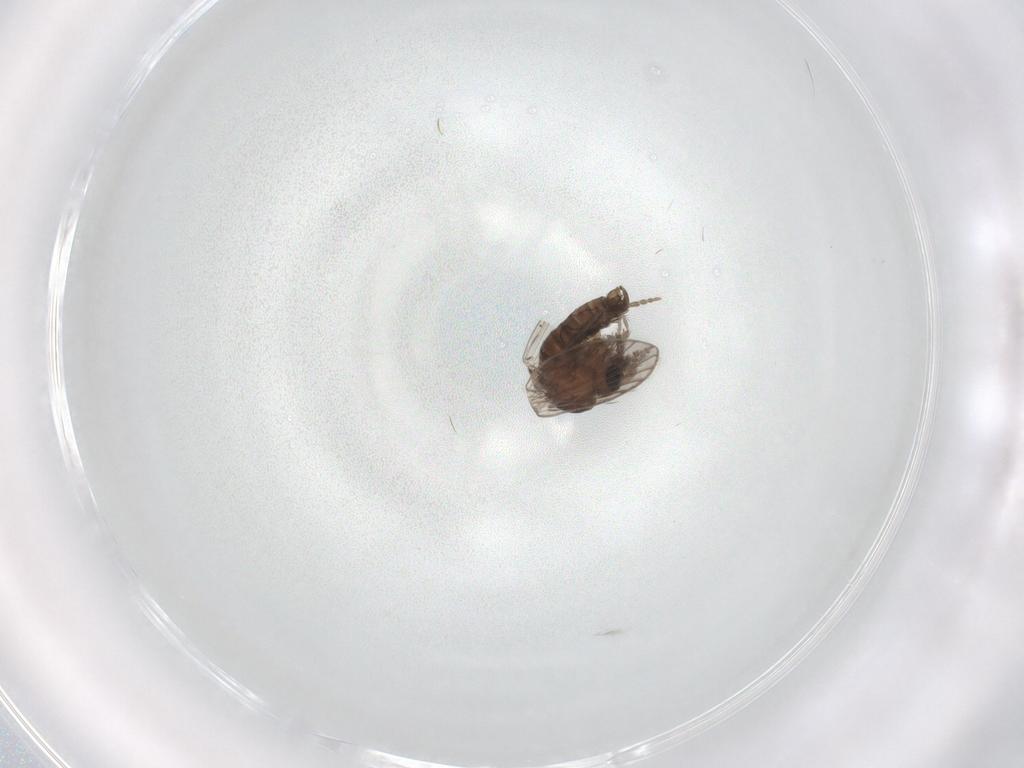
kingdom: Animalia
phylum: Arthropoda
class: Insecta
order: Diptera
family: Psychodidae
